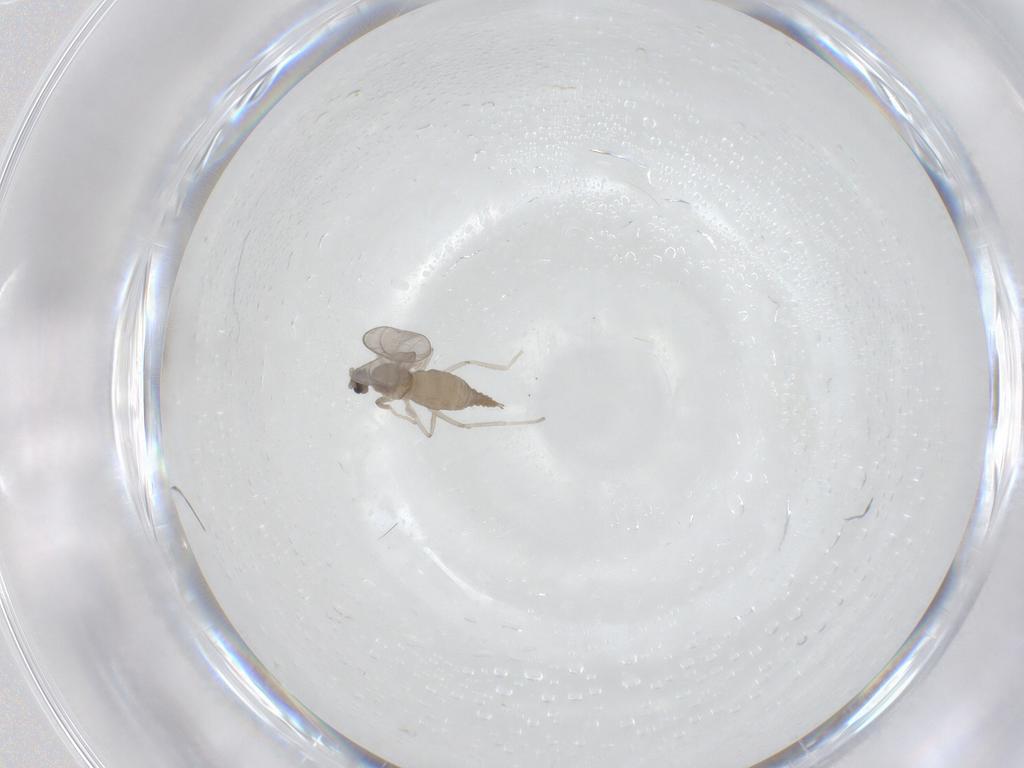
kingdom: Animalia
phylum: Arthropoda
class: Insecta
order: Diptera
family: Cecidomyiidae
